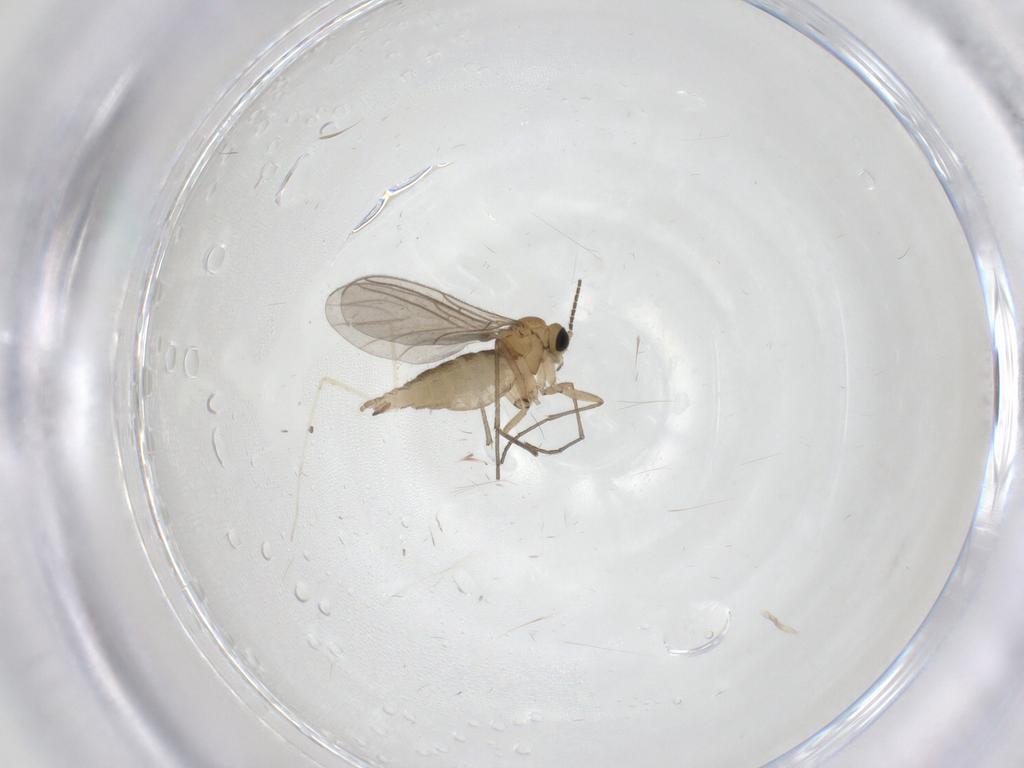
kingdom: Animalia
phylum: Arthropoda
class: Insecta
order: Diptera
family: Sciaridae
